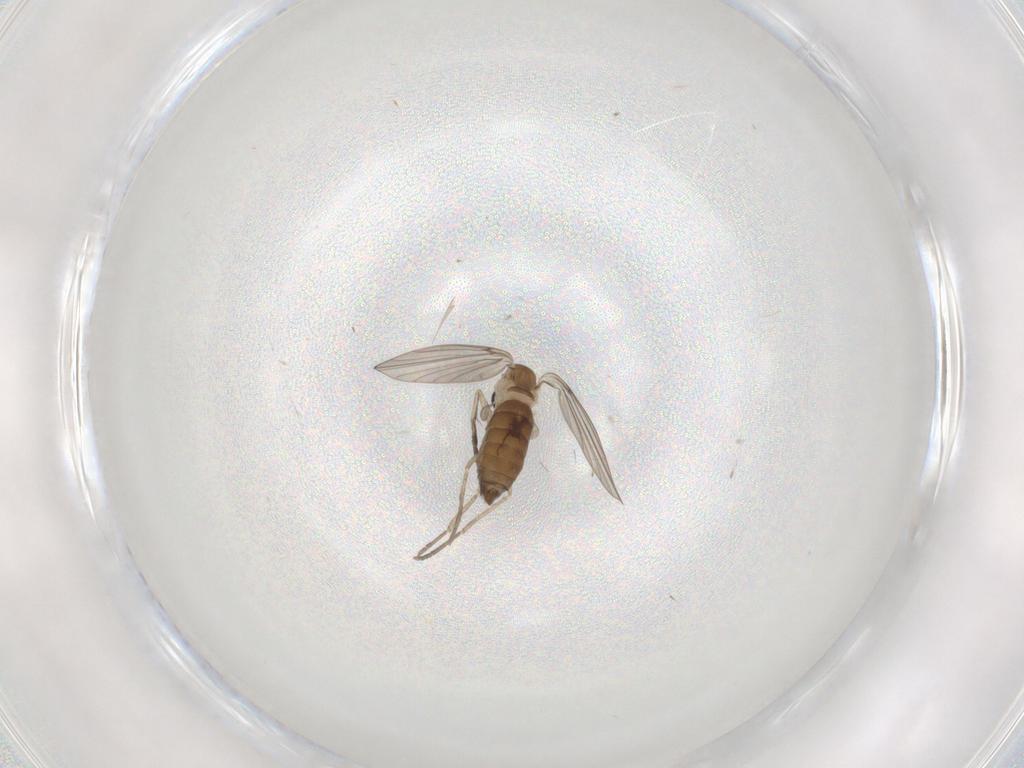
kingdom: Animalia
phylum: Arthropoda
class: Insecta
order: Diptera
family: Psychodidae
